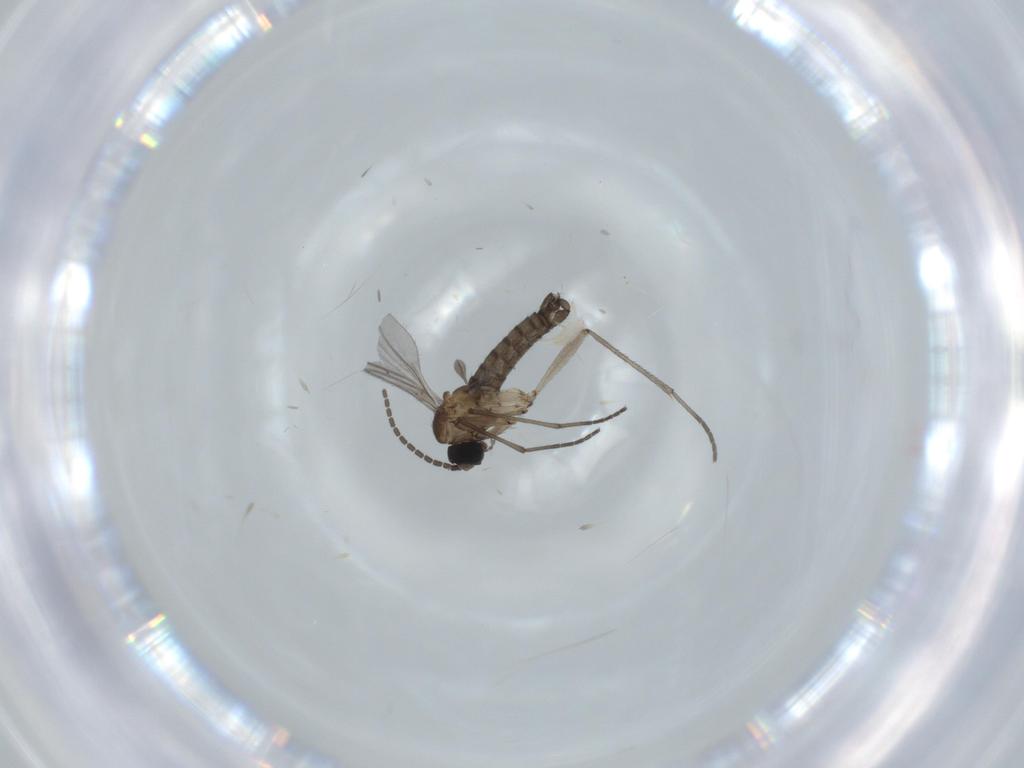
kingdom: Animalia
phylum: Arthropoda
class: Insecta
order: Diptera
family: Sciaridae
